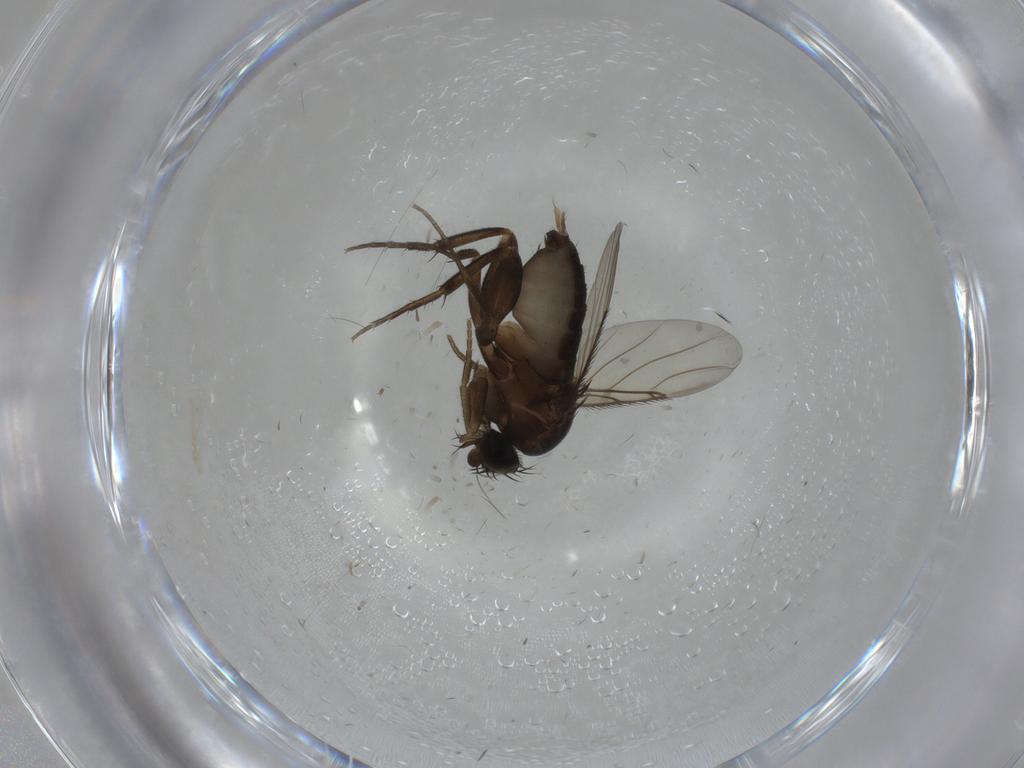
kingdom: Animalia
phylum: Arthropoda
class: Insecta
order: Diptera
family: Phoridae
